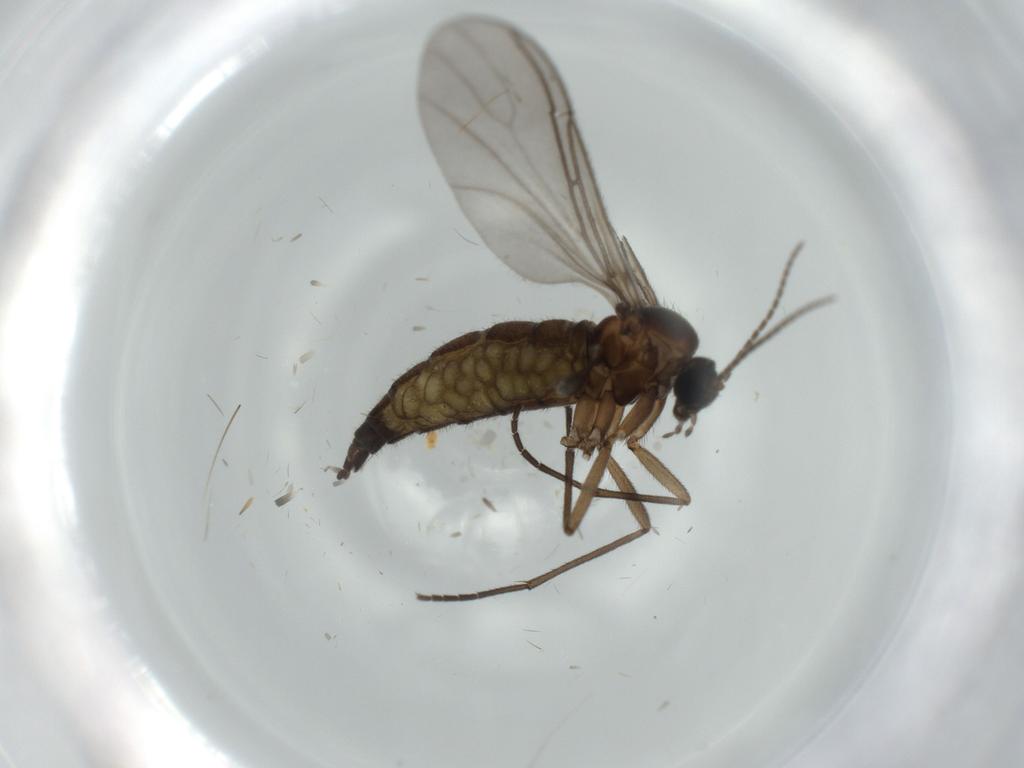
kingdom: Animalia
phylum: Arthropoda
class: Insecta
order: Diptera
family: Sciaridae
